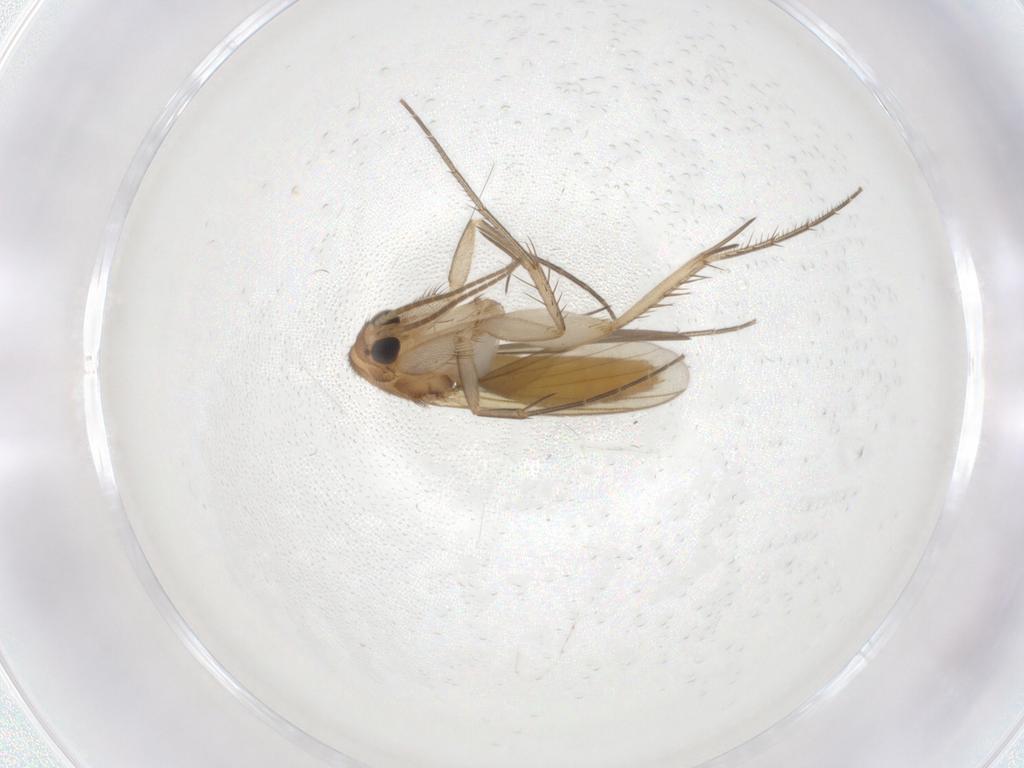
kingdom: Animalia
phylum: Arthropoda
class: Insecta
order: Diptera
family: Mycetophilidae
